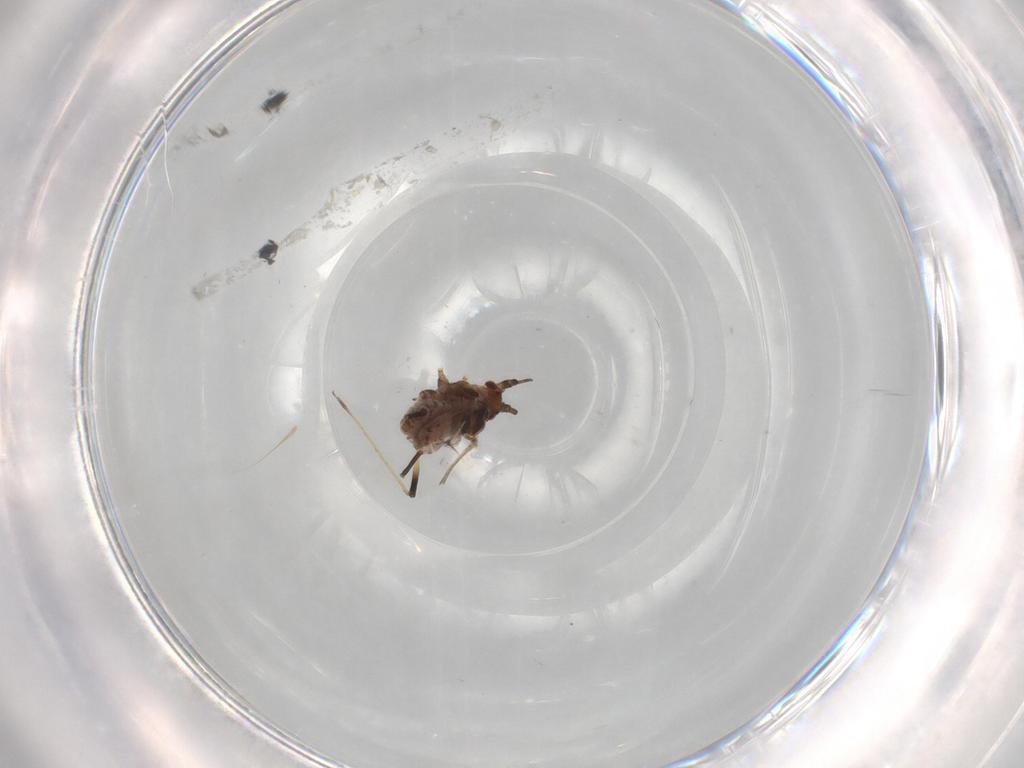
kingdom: Animalia
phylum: Arthropoda
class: Insecta
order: Hemiptera
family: Aphididae
